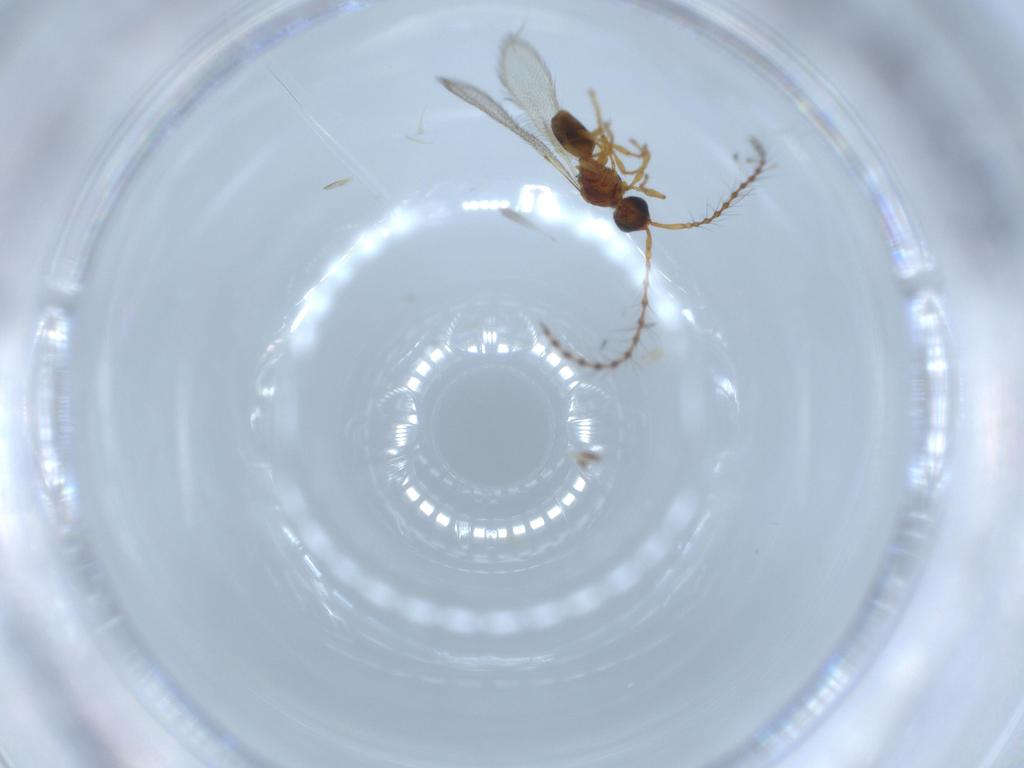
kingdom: Animalia
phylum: Arthropoda
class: Insecta
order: Hymenoptera
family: Diapriidae
